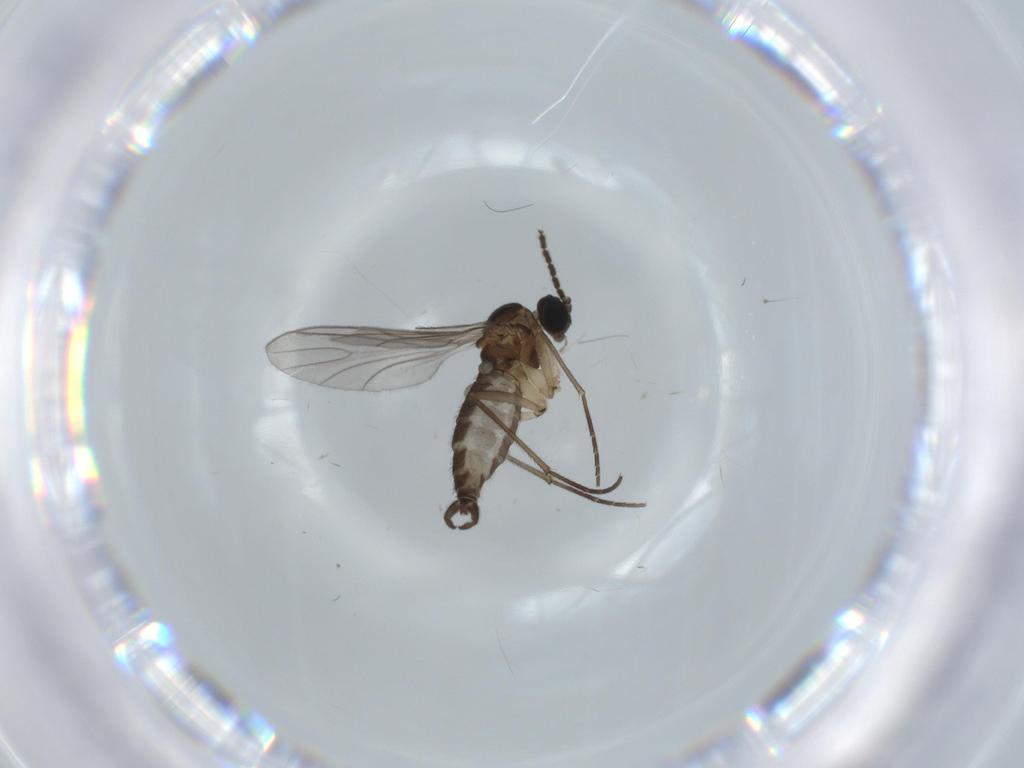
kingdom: Animalia
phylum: Arthropoda
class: Insecta
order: Diptera
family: Sciaridae
